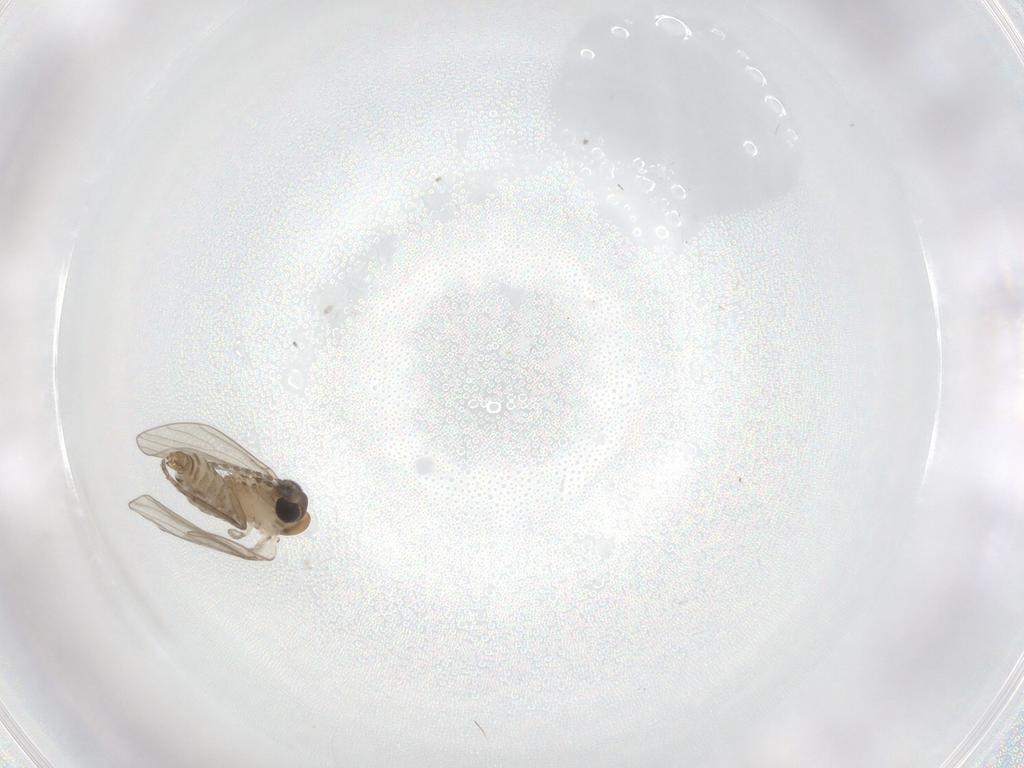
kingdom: Animalia
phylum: Arthropoda
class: Insecta
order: Diptera
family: Psychodidae
